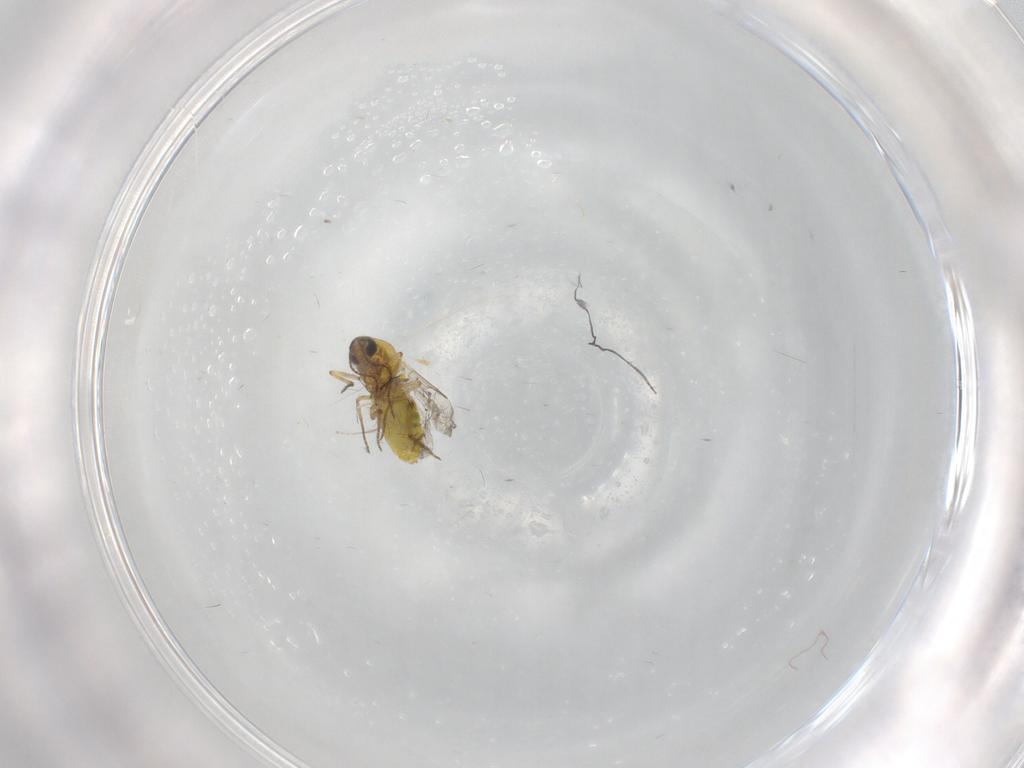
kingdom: Animalia
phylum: Arthropoda
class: Insecta
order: Diptera
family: Cecidomyiidae
